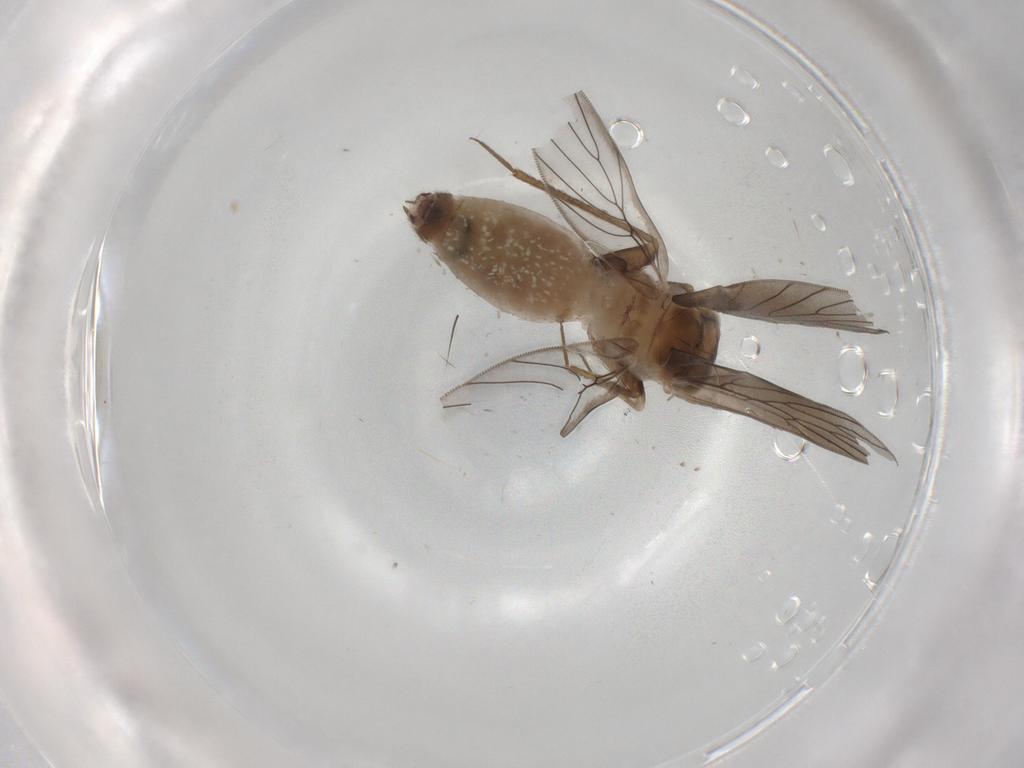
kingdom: Animalia
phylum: Arthropoda
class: Insecta
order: Psocodea
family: Lepidopsocidae
